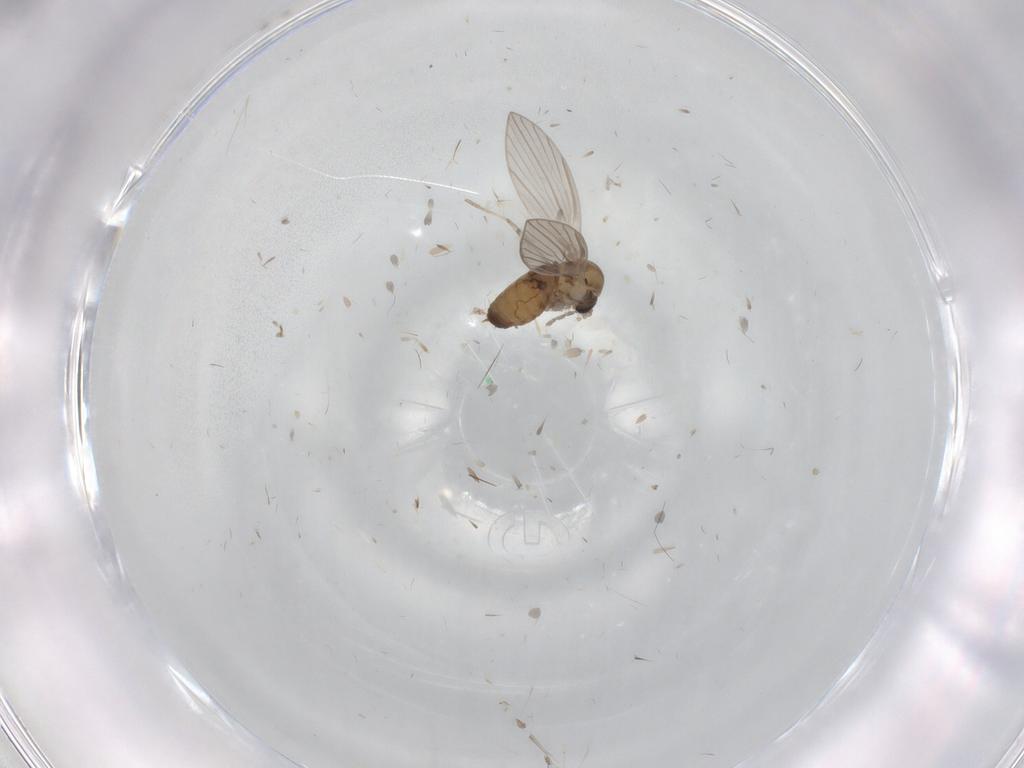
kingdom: Animalia
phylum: Arthropoda
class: Insecta
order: Diptera
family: Psychodidae
